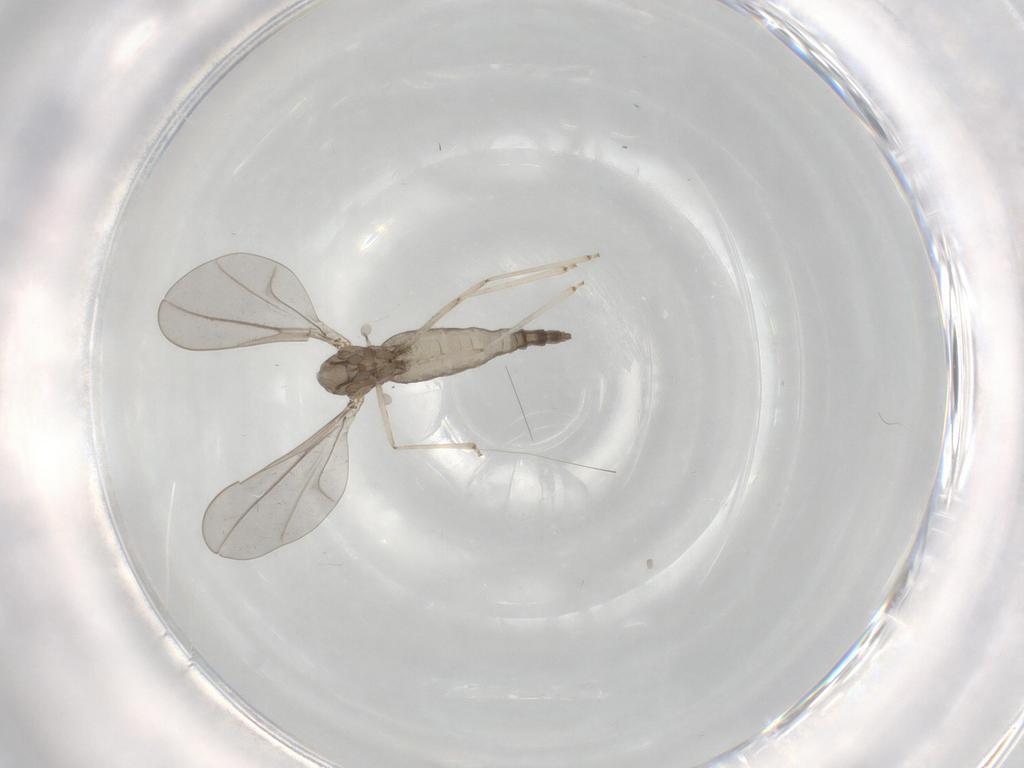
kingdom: Animalia
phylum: Arthropoda
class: Insecta
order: Diptera
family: Cecidomyiidae
